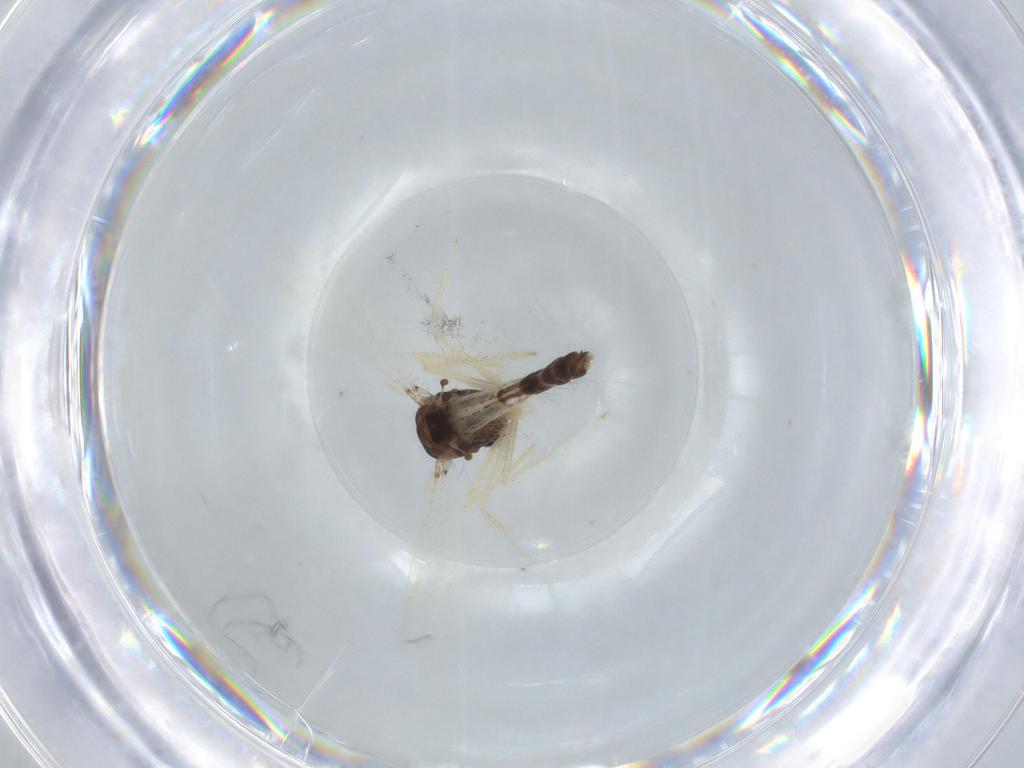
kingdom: Animalia
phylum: Arthropoda
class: Insecta
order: Diptera
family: Chironomidae
